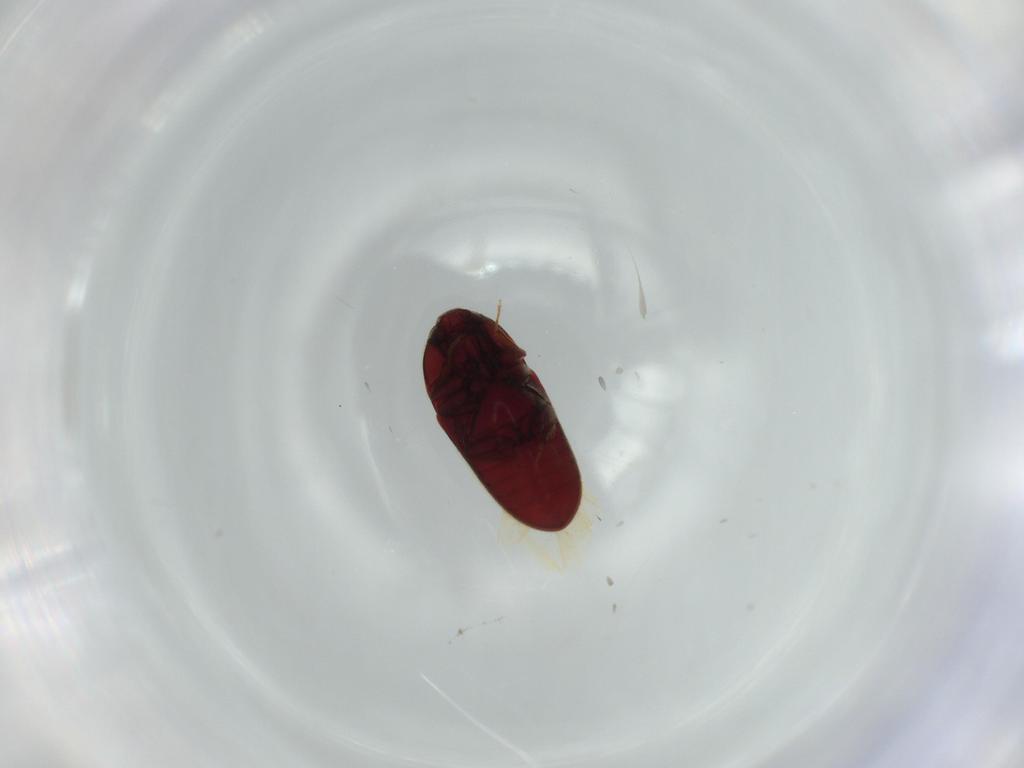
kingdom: Animalia
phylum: Arthropoda
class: Insecta
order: Coleoptera
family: Throscidae
